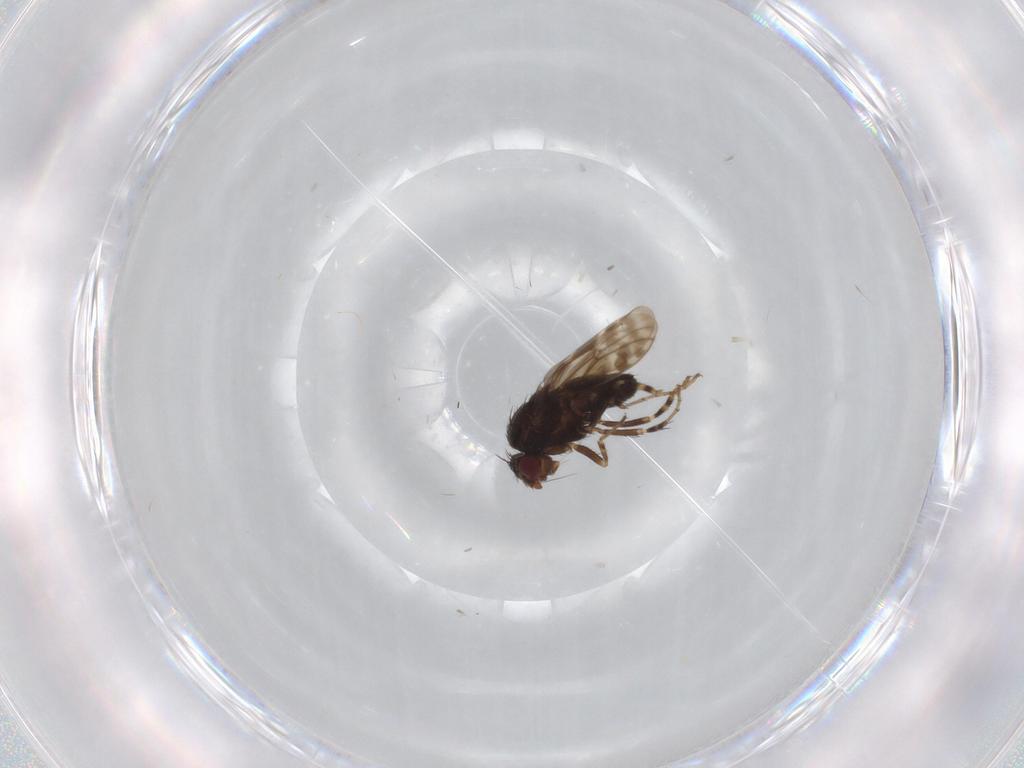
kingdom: Animalia
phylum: Arthropoda
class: Insecta
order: Diptera
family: Sphaeroceridae
